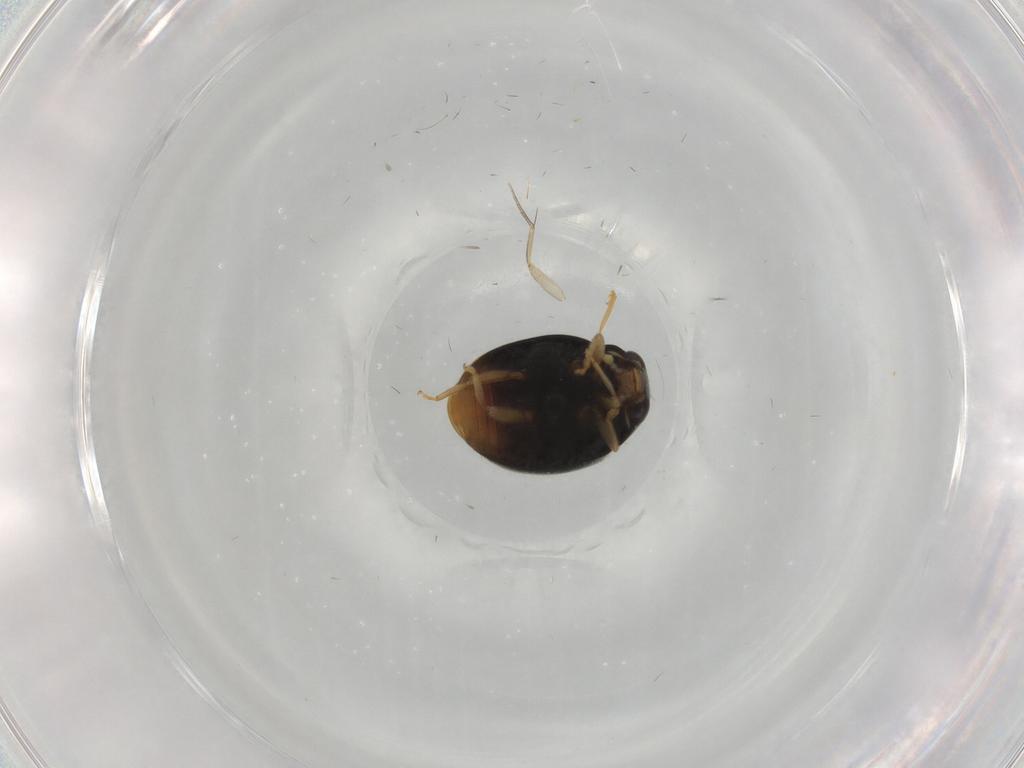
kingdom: Animalia
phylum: Arthropoda
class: Insecta
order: Coleoptera
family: Coccinellidae
